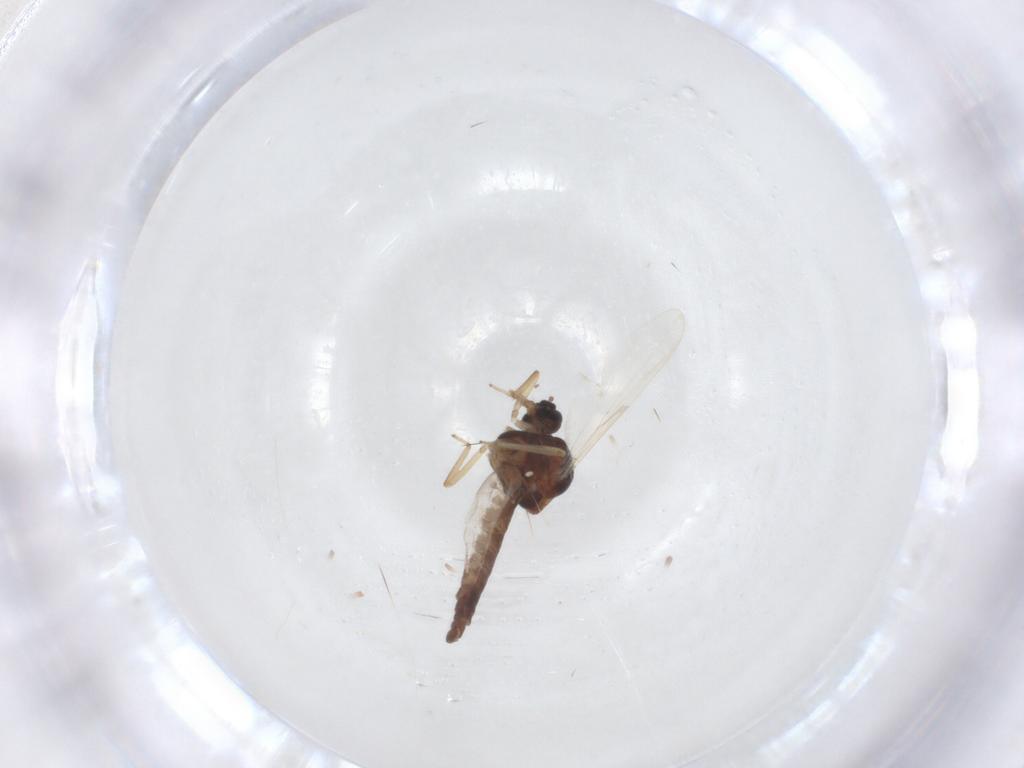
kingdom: Animalia
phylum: Arthropoda
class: Insecta
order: Diptera
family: Ceratopogonidae
